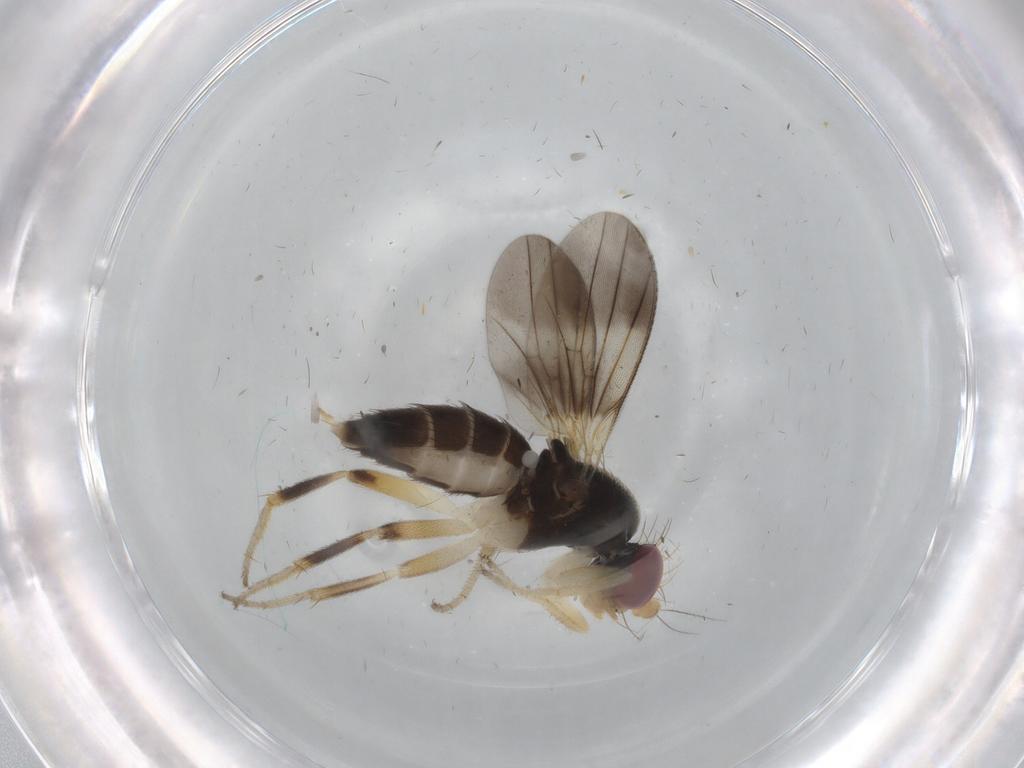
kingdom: Animalia
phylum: Arthropoda
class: Insecta
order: Diptera
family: Clusiidae
